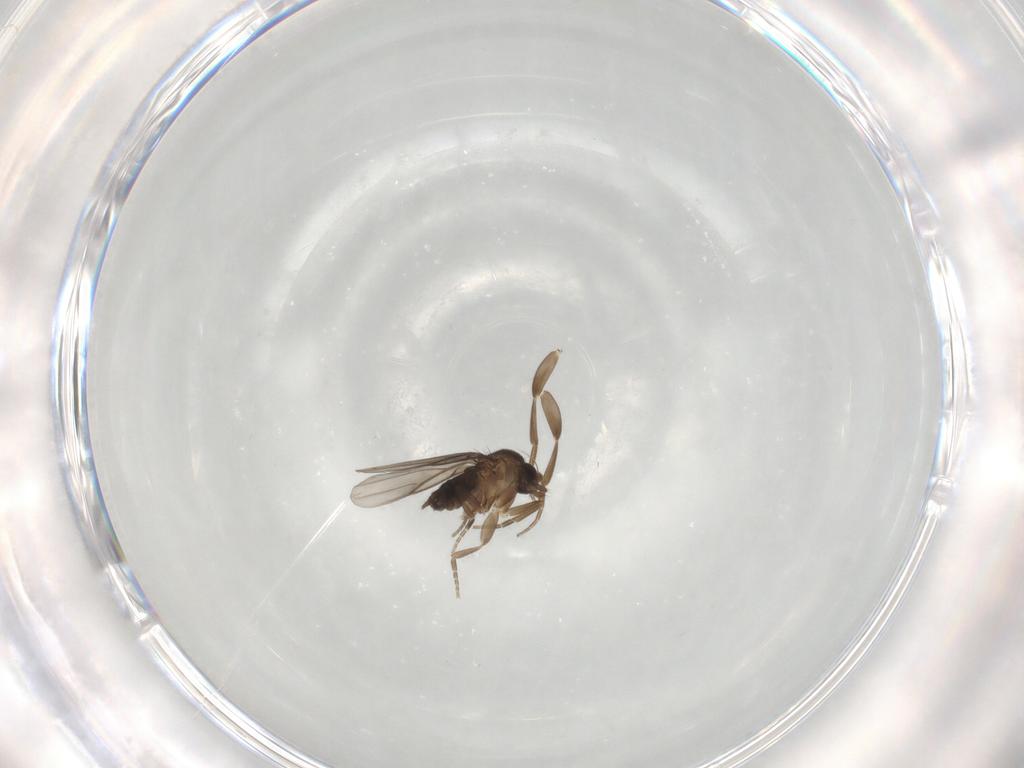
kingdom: Animalia
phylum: Arthropoda
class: Insecta
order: Diptera
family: Phoridae
